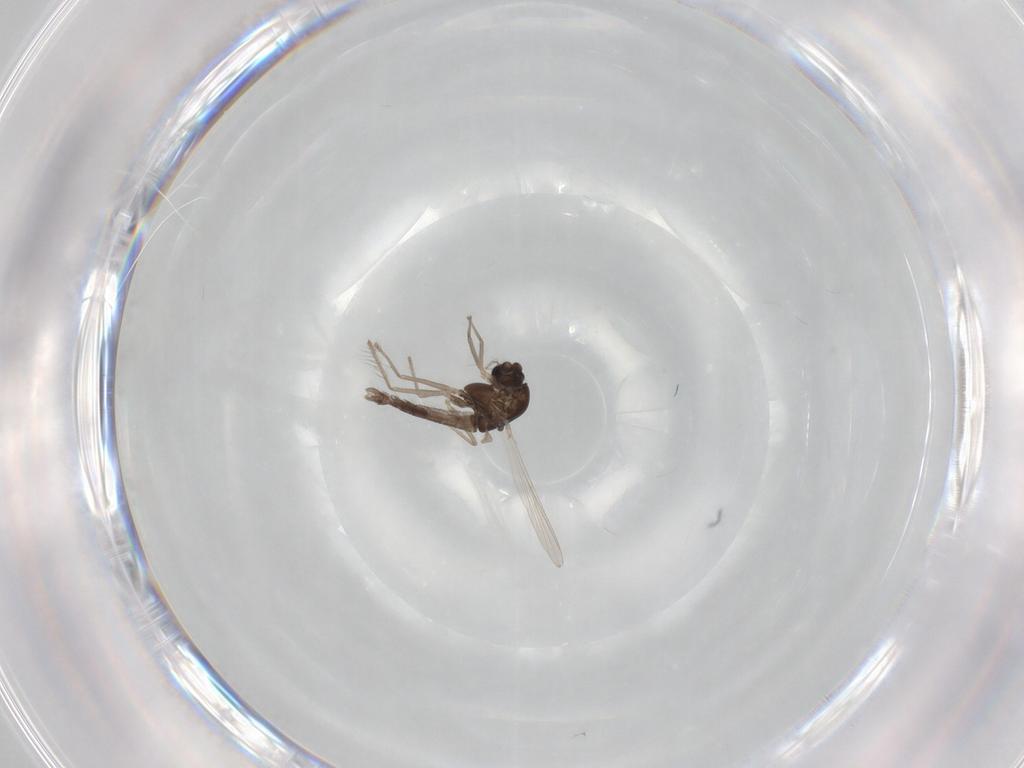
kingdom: Animalia
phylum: Arthropoda
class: Insecta
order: Diptera
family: Chironomidae
